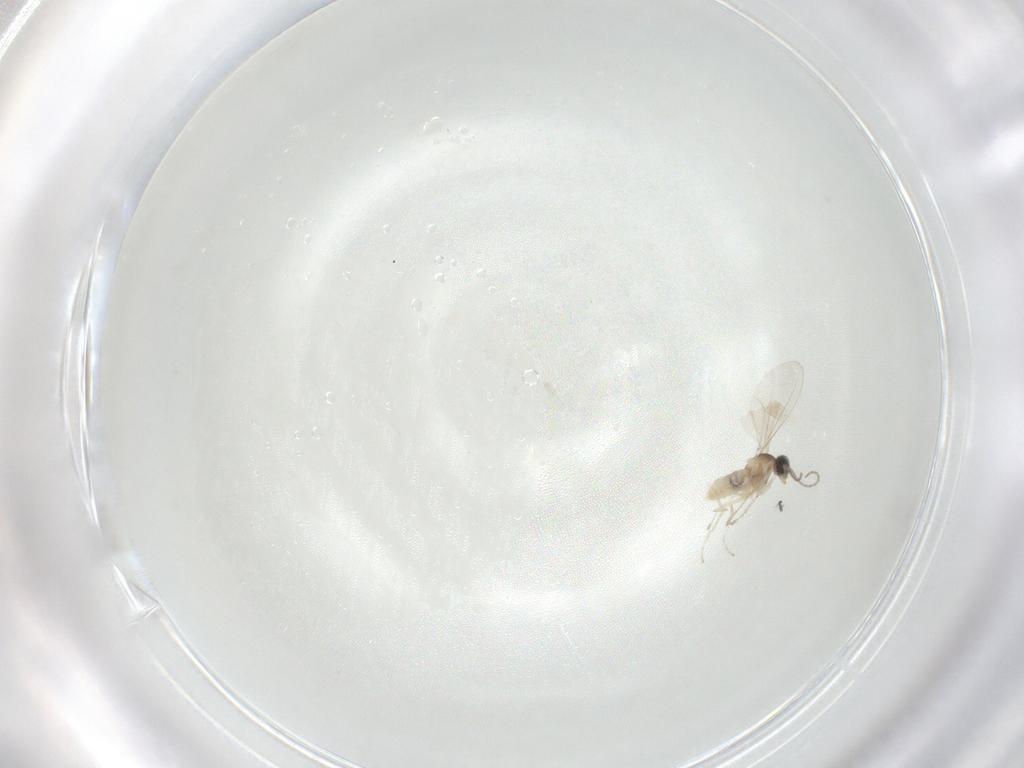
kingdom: Animalia
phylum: Arthropoda
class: Insecta
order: Diptera
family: Cecidomyiidae
